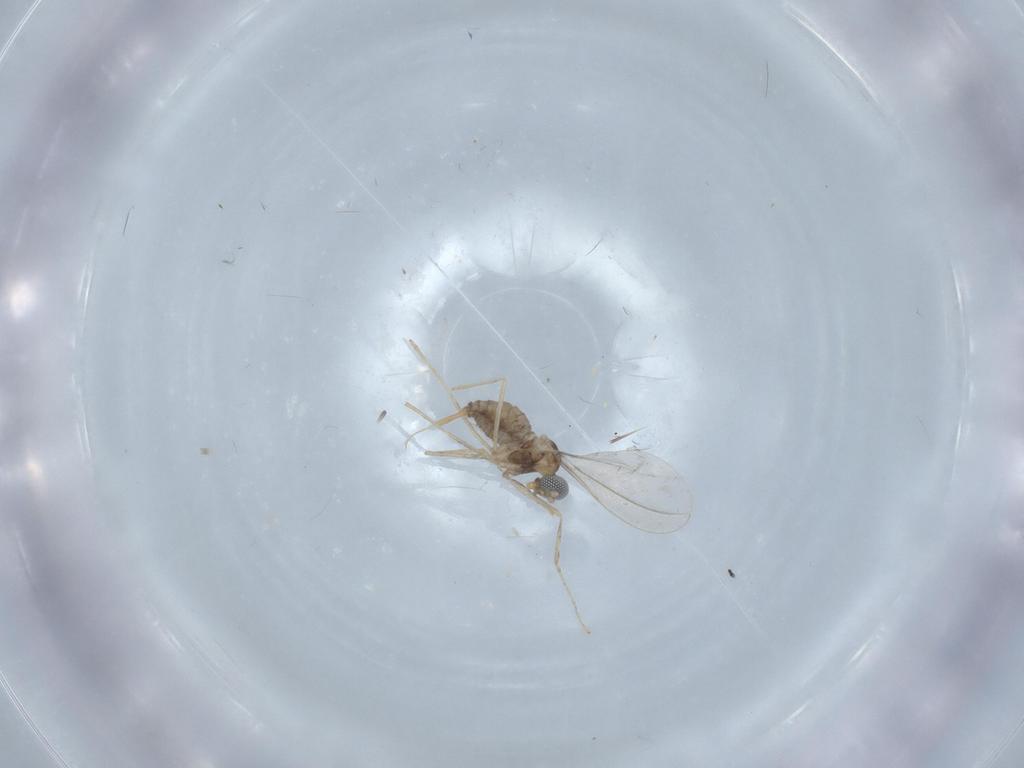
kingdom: Animalia
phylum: Arthropoda
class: Insecta
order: Diptera
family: Cecidomyiidae
